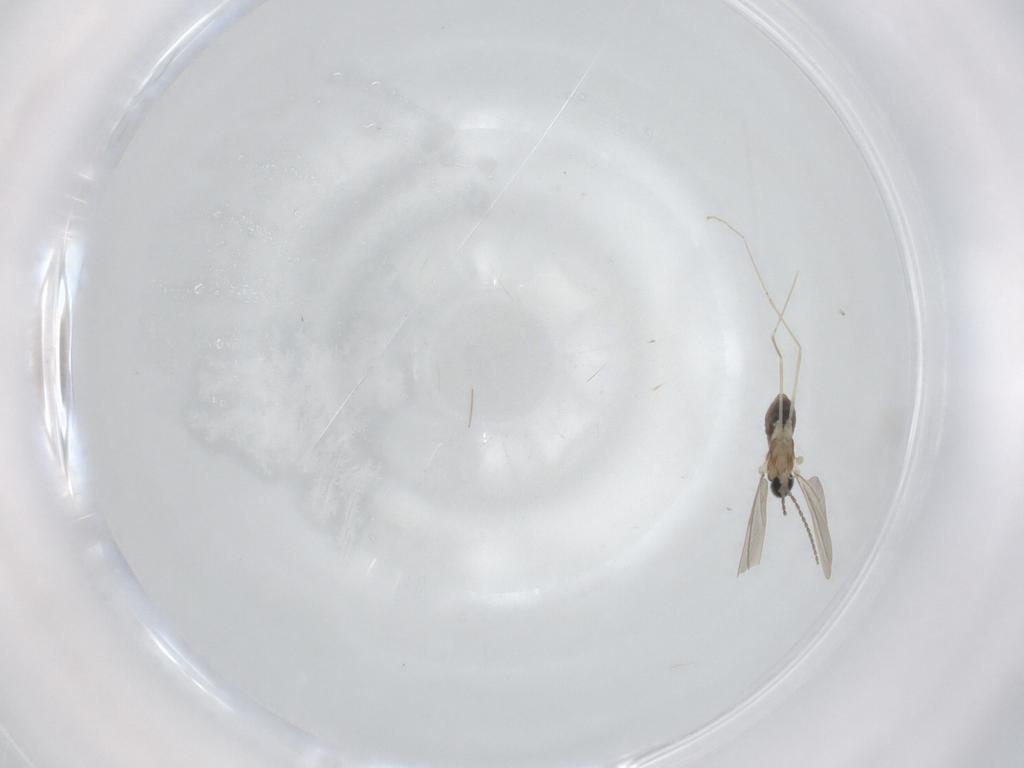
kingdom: Animalia
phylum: Arthropoda
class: Insecta
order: Diptera
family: Cecidomyiidae
